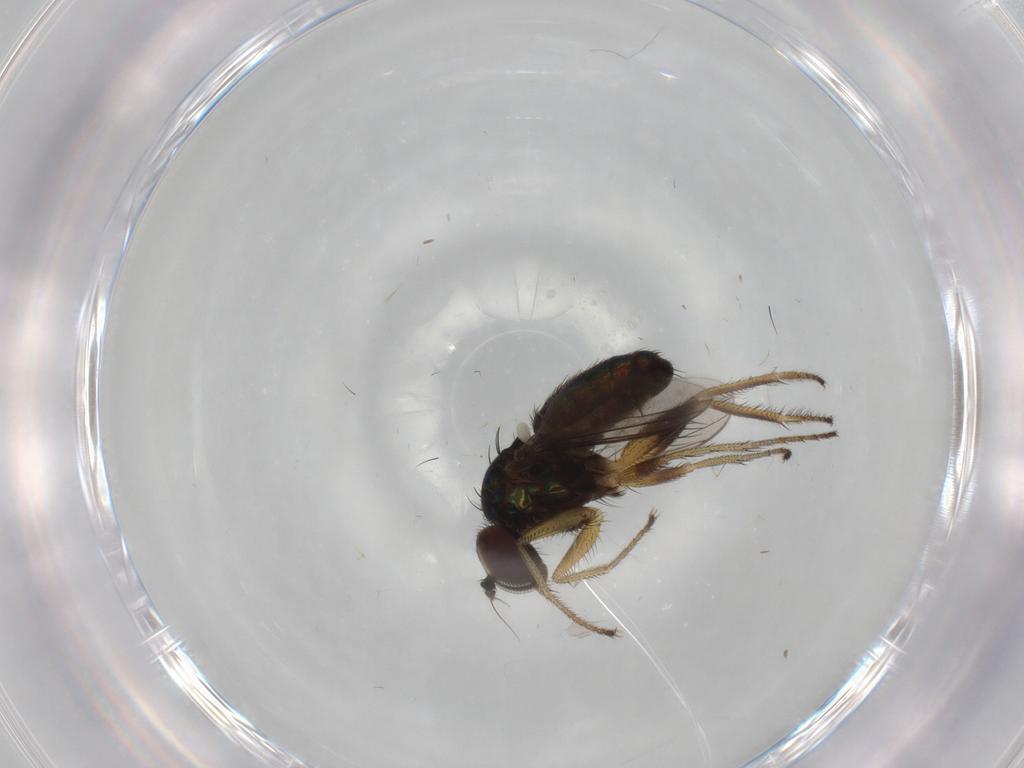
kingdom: Animalia
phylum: Arthropoda
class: Insecta
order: Diptera
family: Dolichopodidae
